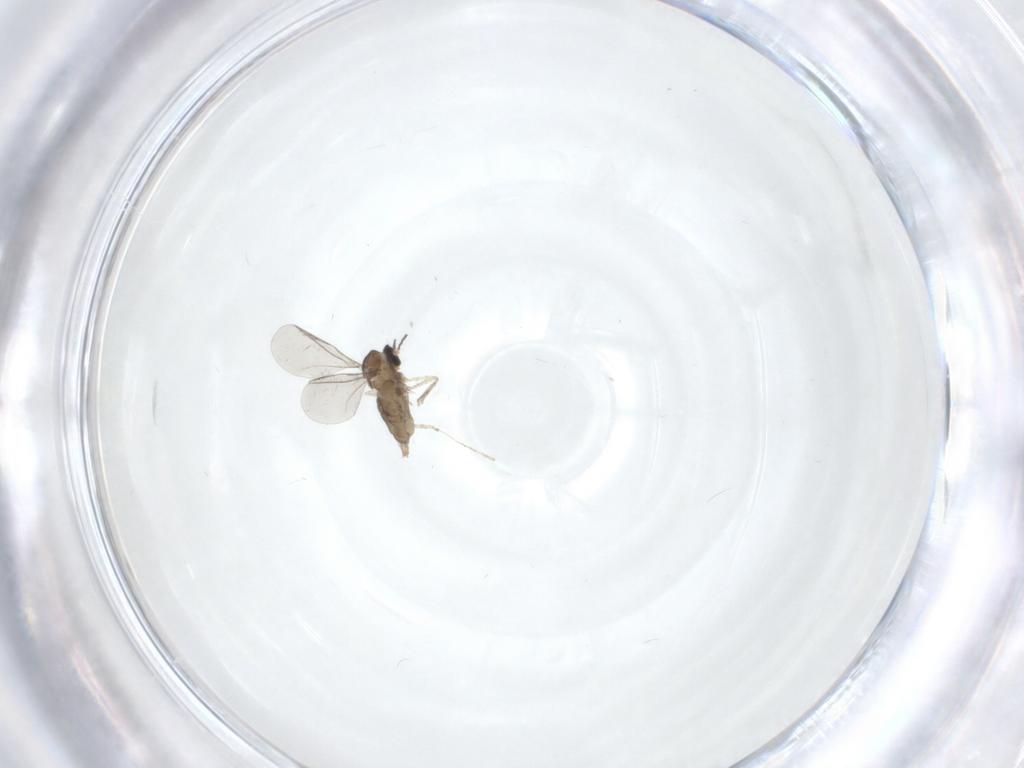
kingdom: Animalia
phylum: Arthropoda
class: Insecta
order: Diptera
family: Cecidomyiidae
